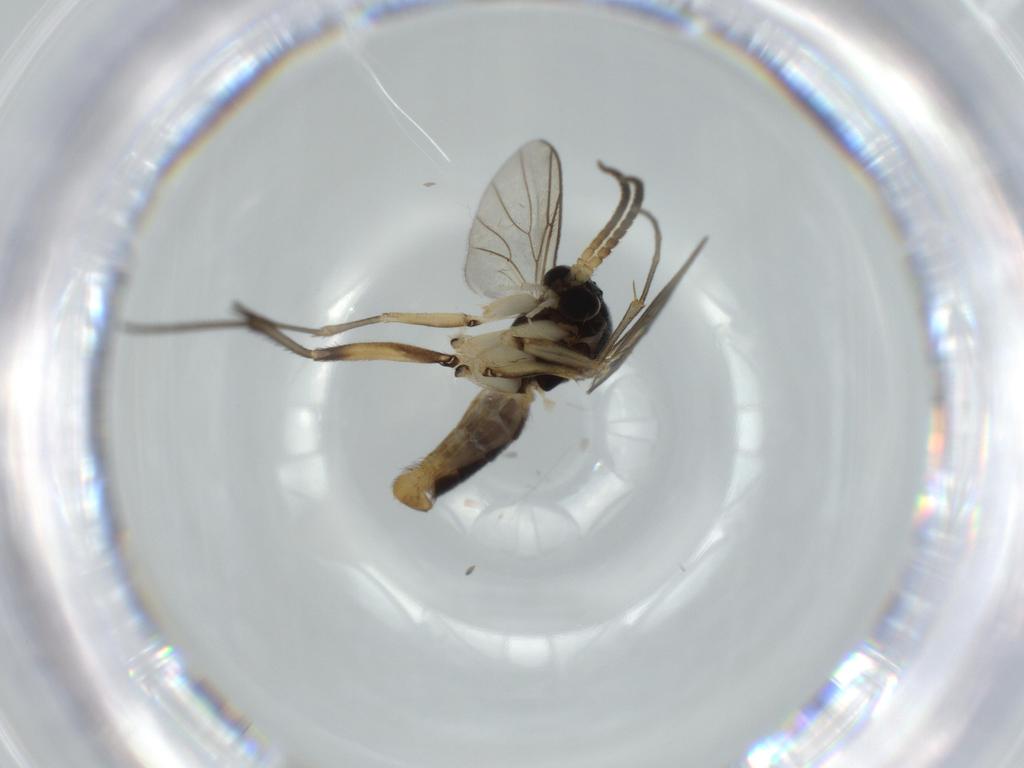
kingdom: Animalia
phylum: Arthropoda
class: Insecta
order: Diptera
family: Mycetophilidae
